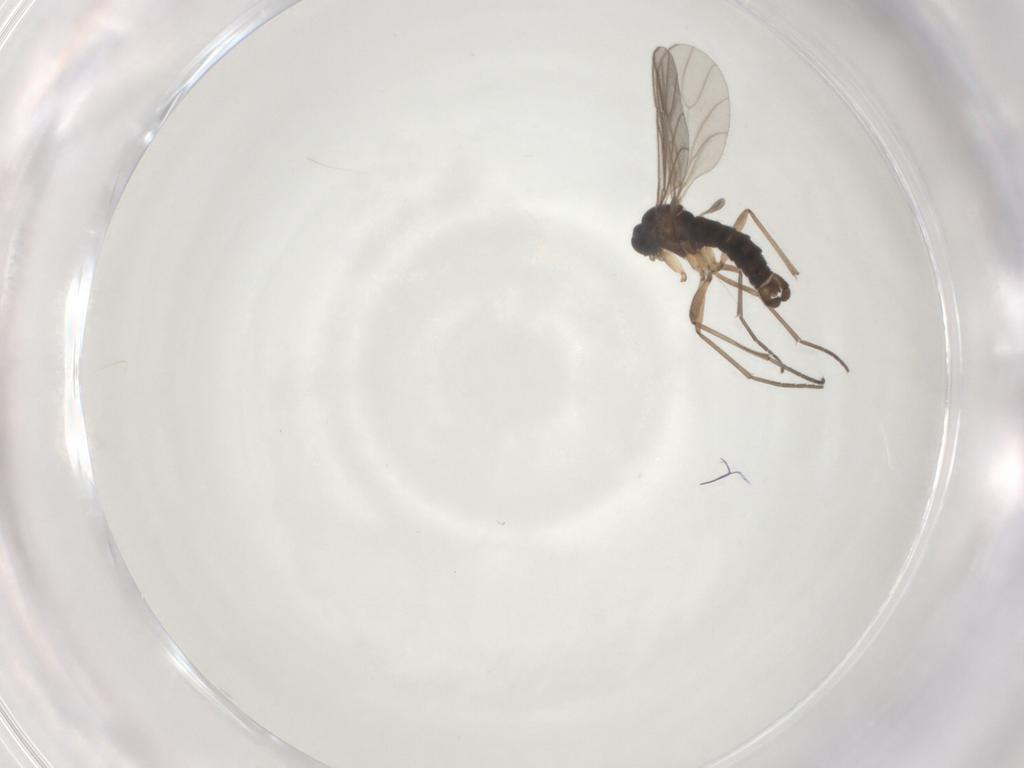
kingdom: Animalia
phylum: Arthropoda
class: Insecta
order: Diptera
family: Sciaridae
